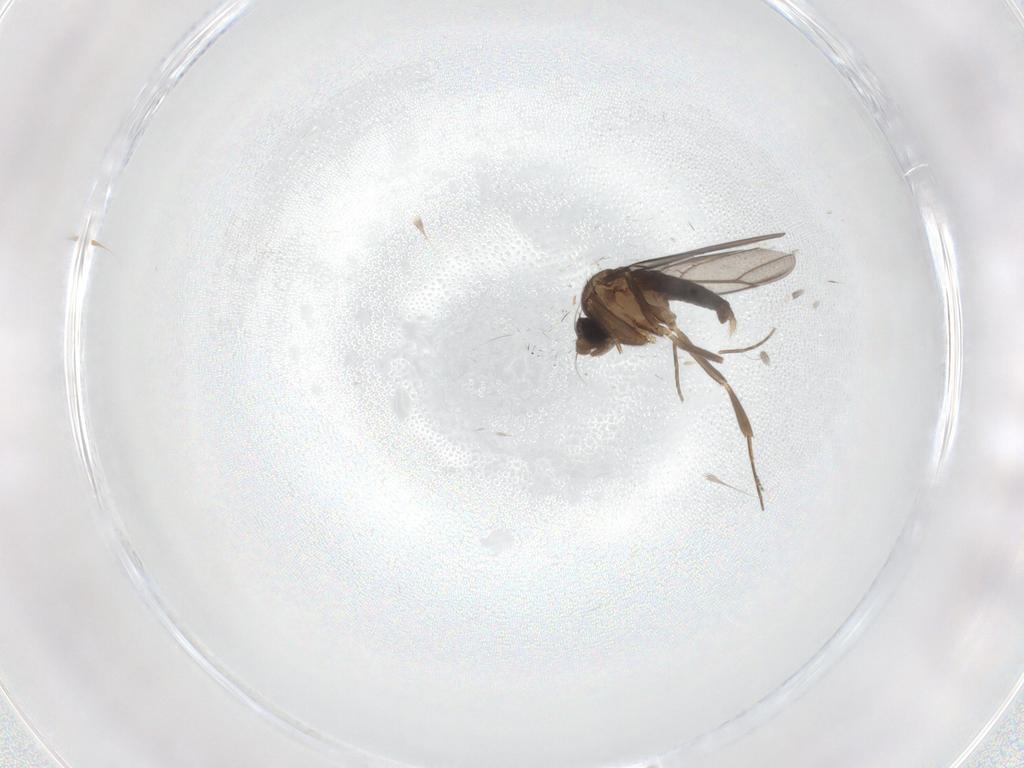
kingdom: Animalia
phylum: Arthropoda
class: Insecta
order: Diptera
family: Cecidomyiidae
